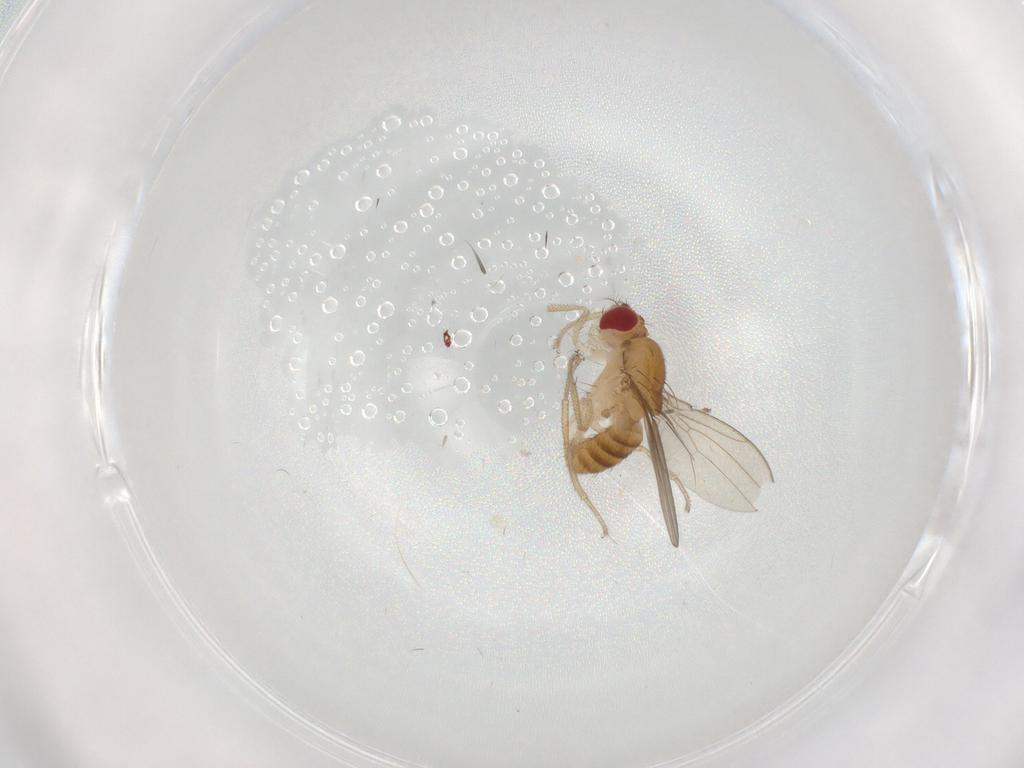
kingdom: Animalia
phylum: Arthropoda
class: Insecta
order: Diptera
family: Drosophilidae
